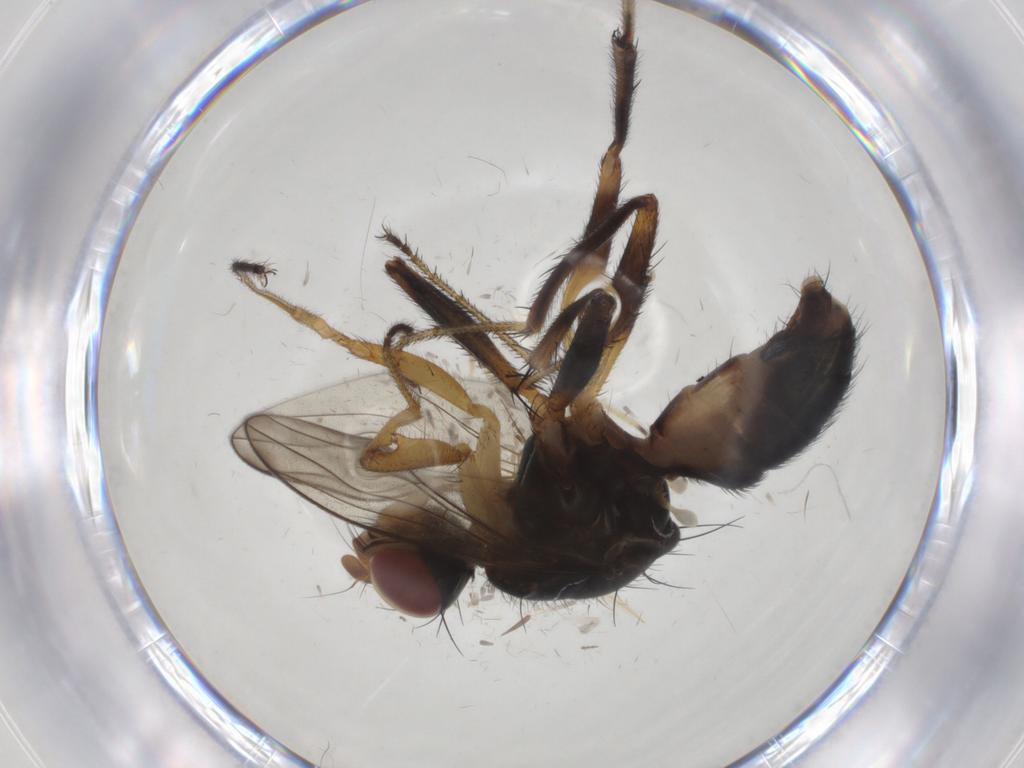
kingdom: Animalia
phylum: Arthropoda
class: Insecta
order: Diptera
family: Sepsidae
